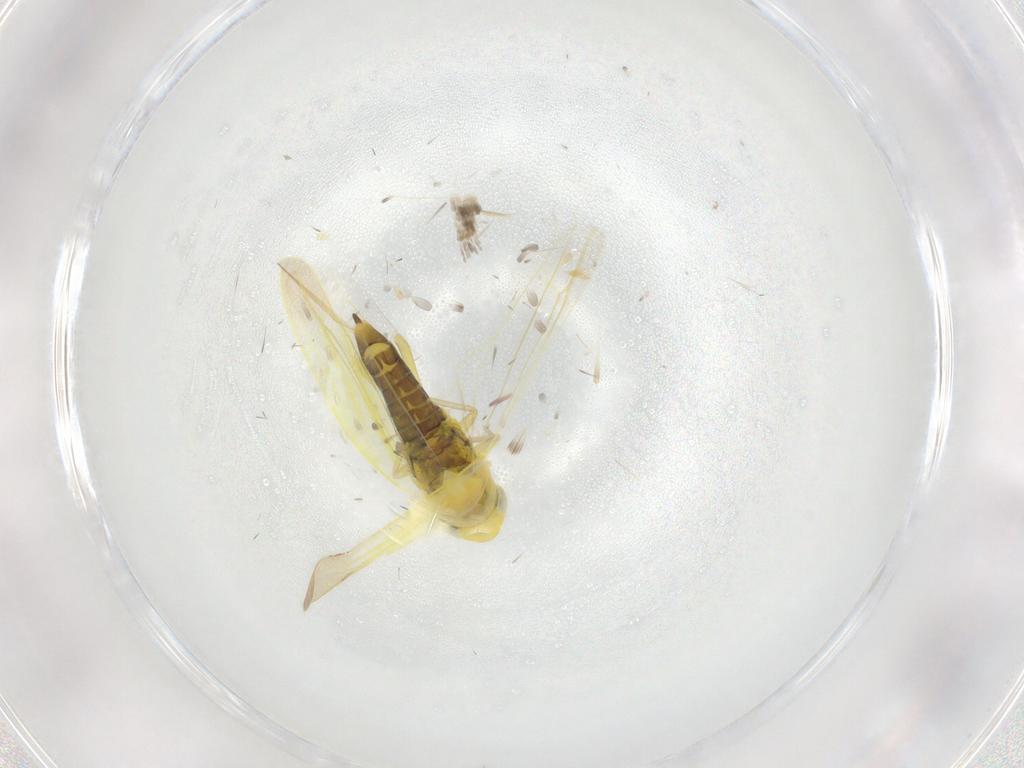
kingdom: Animalia
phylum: Arthropoda
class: Insecta
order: Hemiptera
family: Cicadellidae
